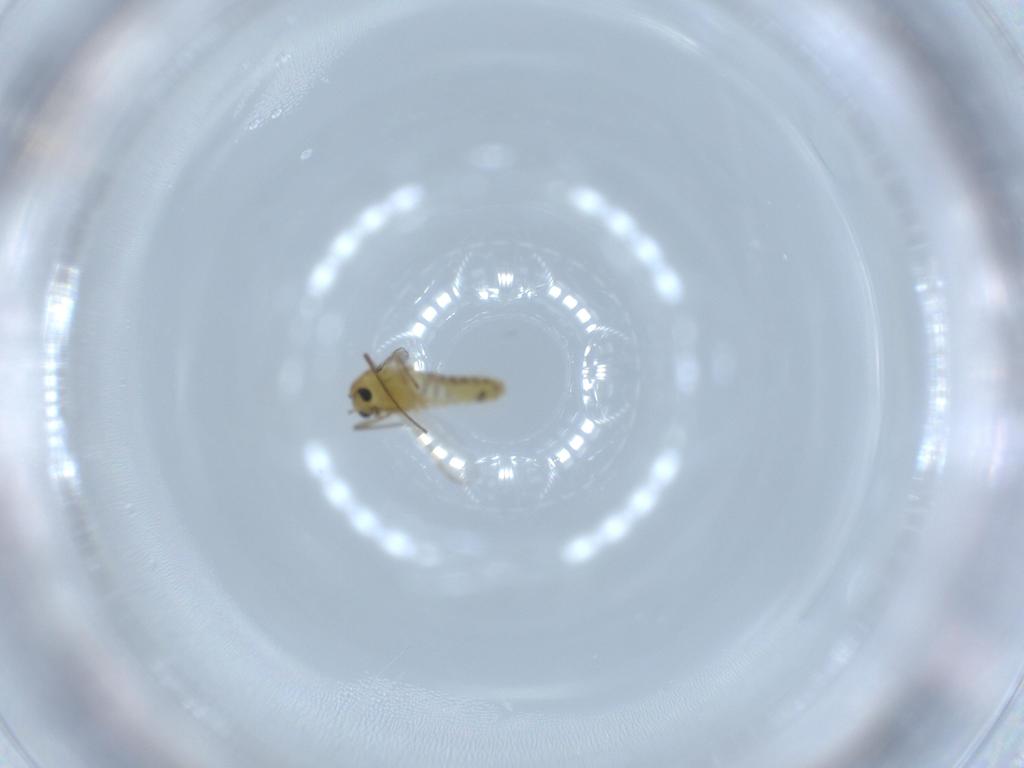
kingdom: Animalia
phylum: Arthropoda
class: Insecta
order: Diptera
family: Chironomidae
